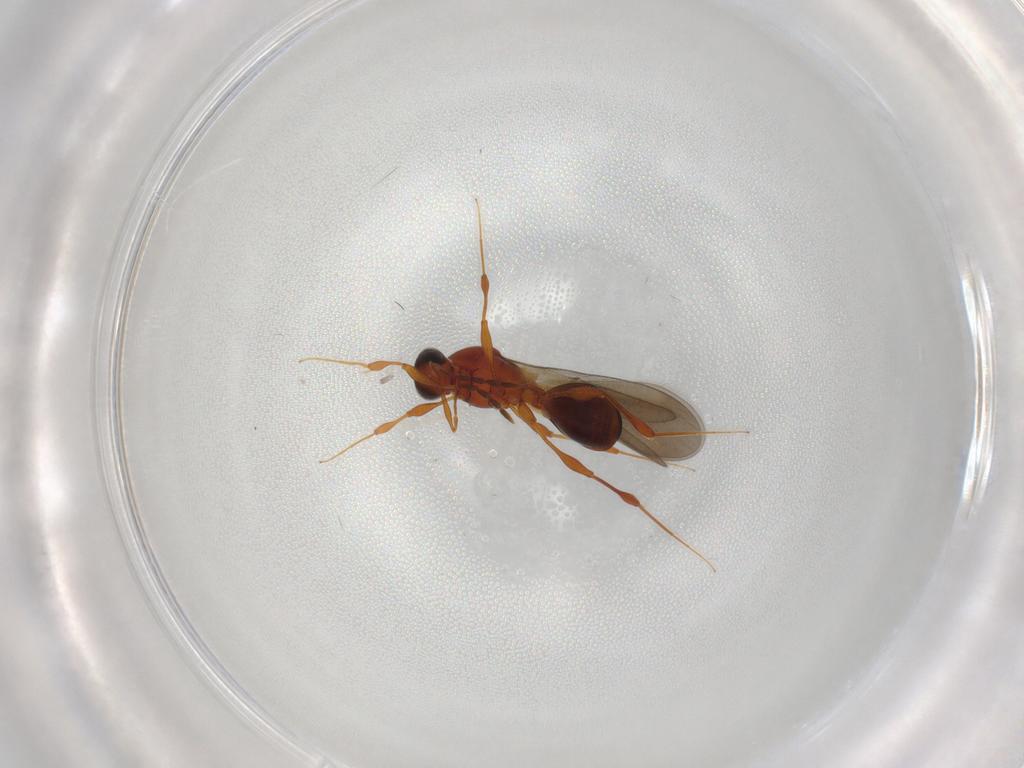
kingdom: Animalia
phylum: Arthropoda
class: Insecta
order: Hymenoptera
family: Platygastridae
